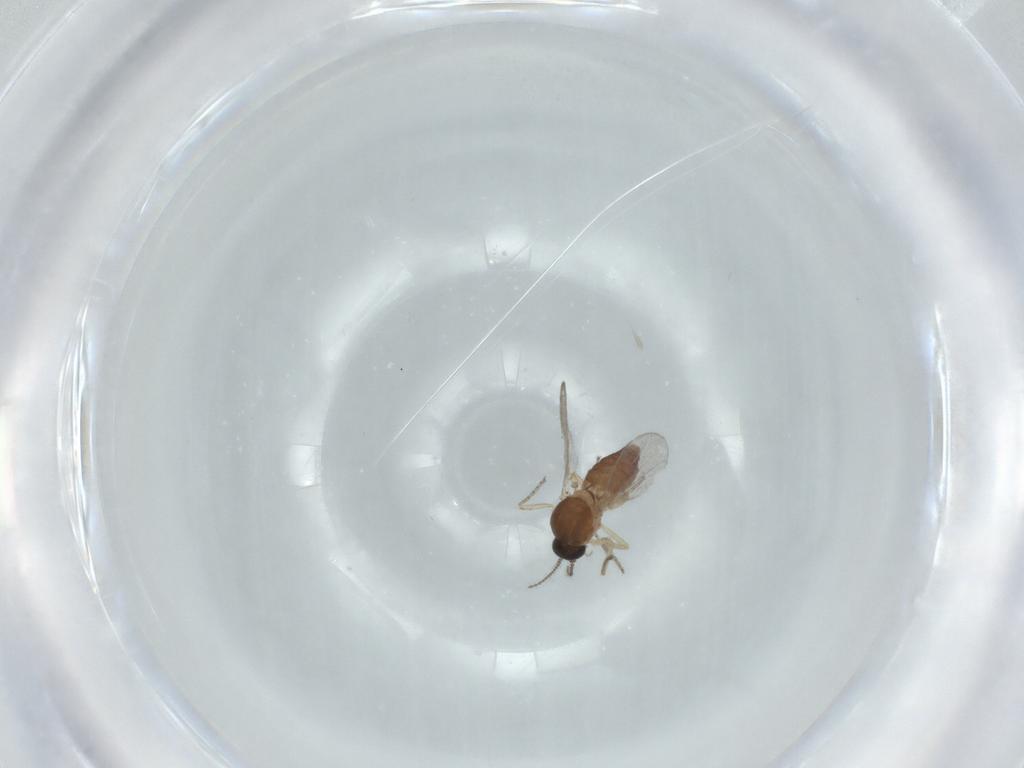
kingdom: Animalia
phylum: Arthropoda
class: Insecta
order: Diptera
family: Ceratopogonidae
